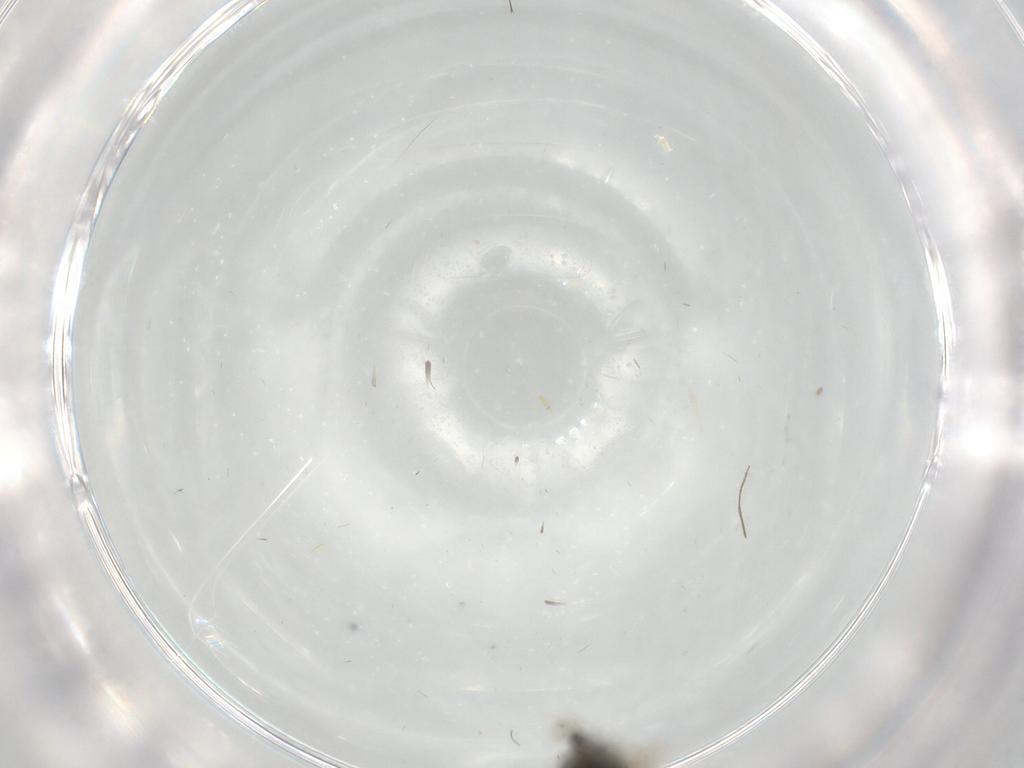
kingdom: Animalia
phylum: Arthropoda
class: Insecta
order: Hymenoptera
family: Scelionidae
